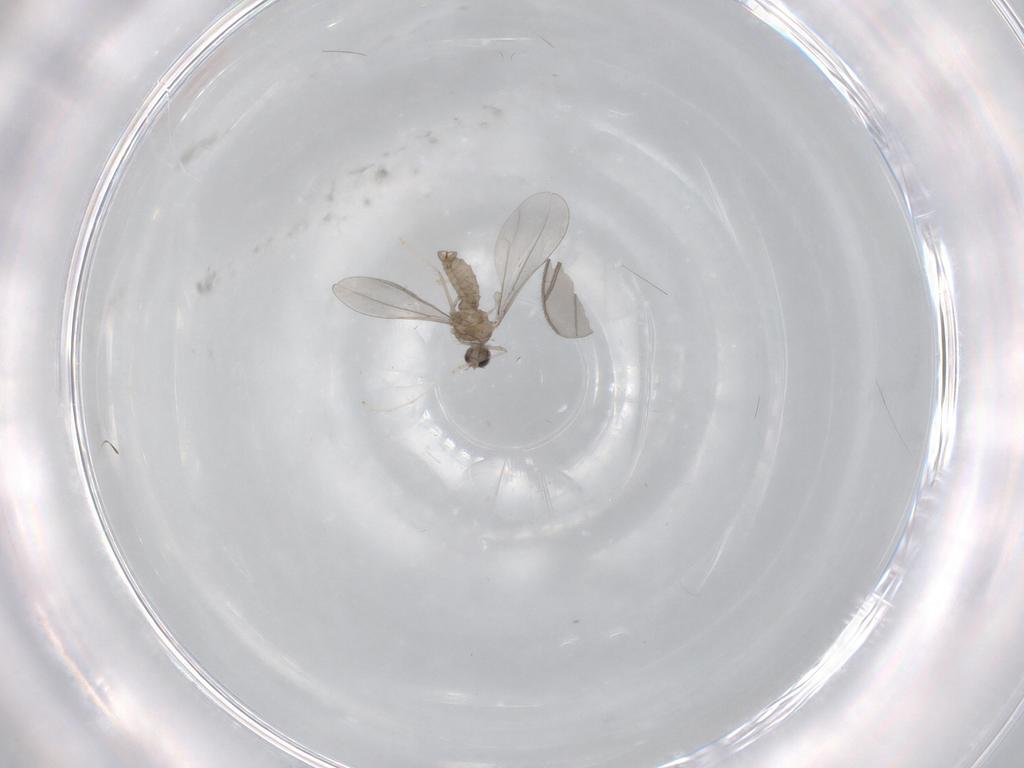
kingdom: Animalia
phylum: Arthropoda
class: Insecta
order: Diptera
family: Sciaridae
